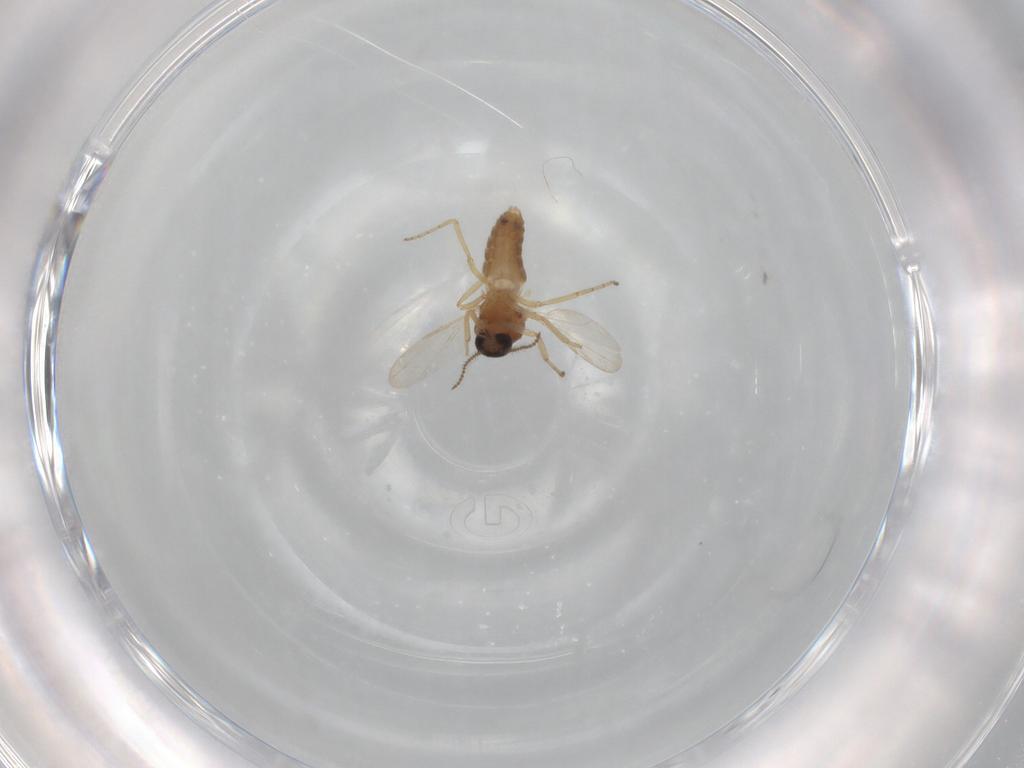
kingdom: Animalia
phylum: Arthropoda
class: Insecta
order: Diptera
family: Ceratopogonidae
